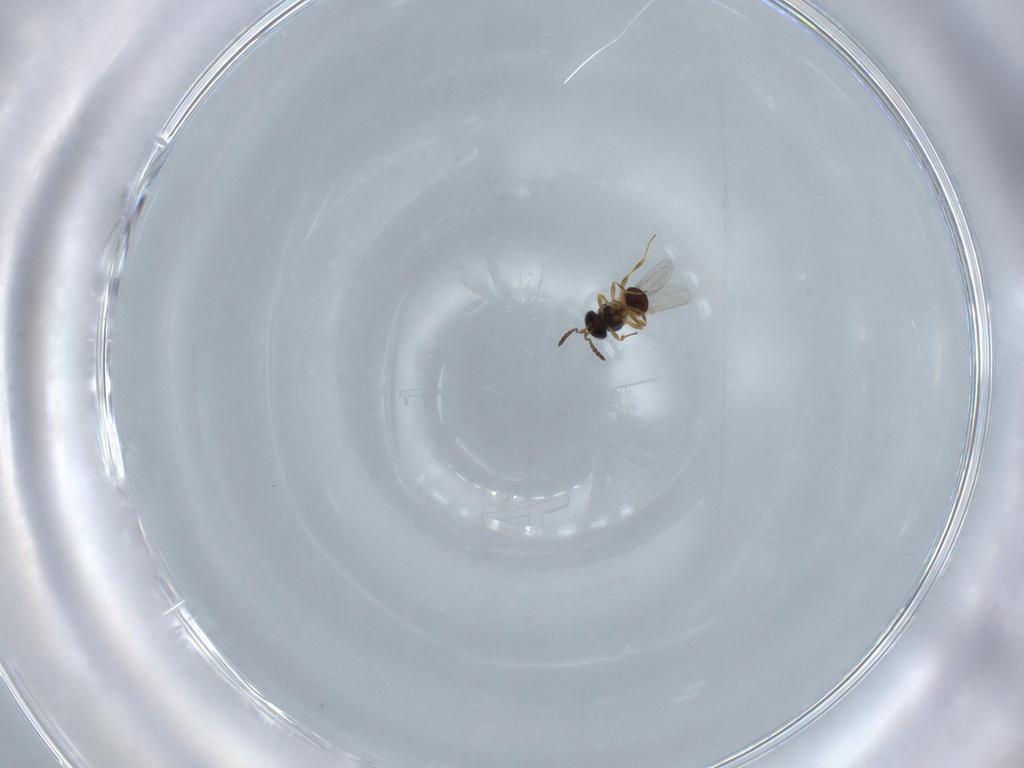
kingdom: Animalia
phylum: Arthropoda
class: Insecta
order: Hymenoptera
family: Platygastridae
